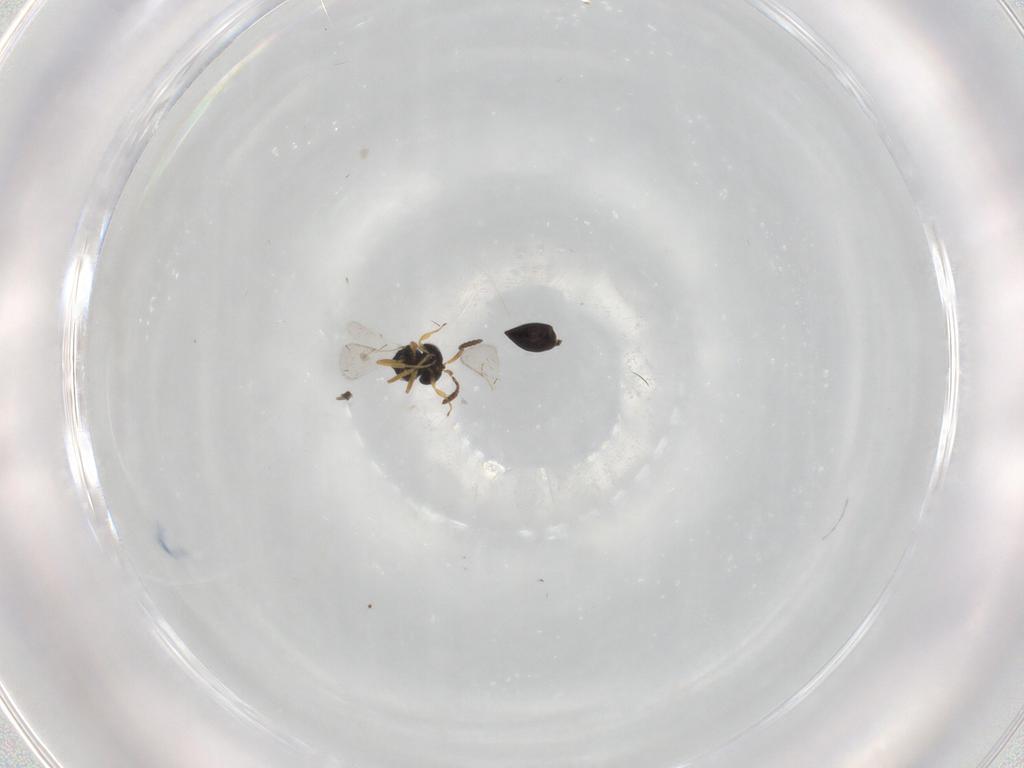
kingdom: Animalia
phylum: Arthropoda
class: Insecta
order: Hymenoptera
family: Scelionidae
